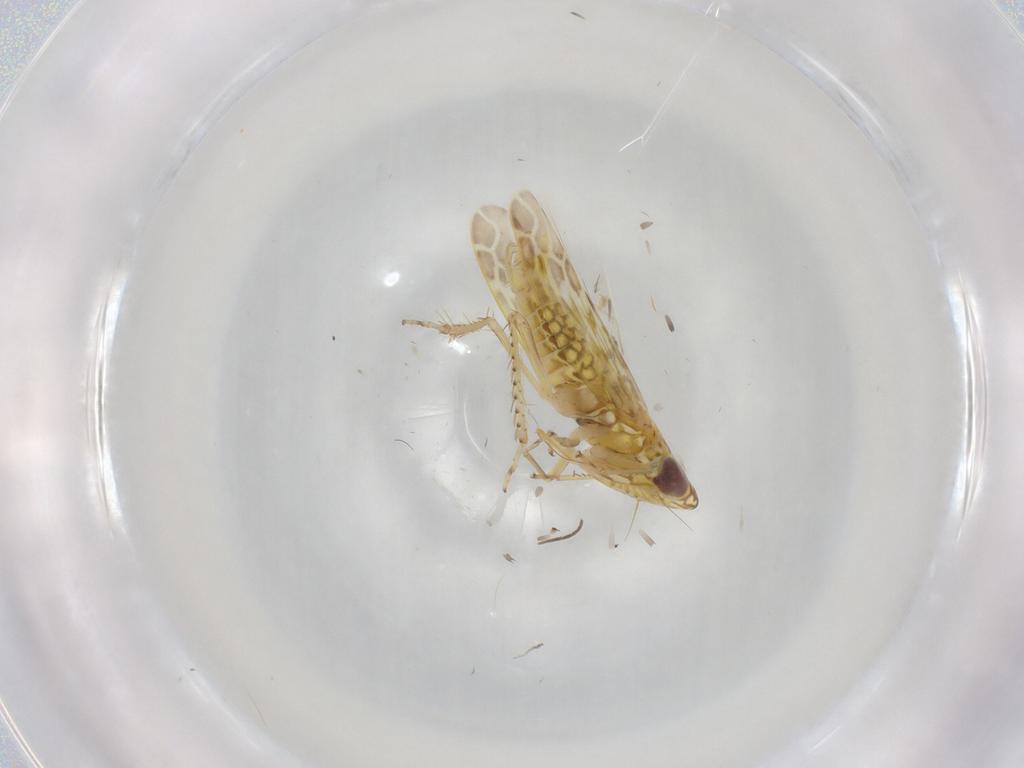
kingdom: Animalia
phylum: Arthropoda
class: Insecta
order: Hemiptera
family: Cicadellidae
